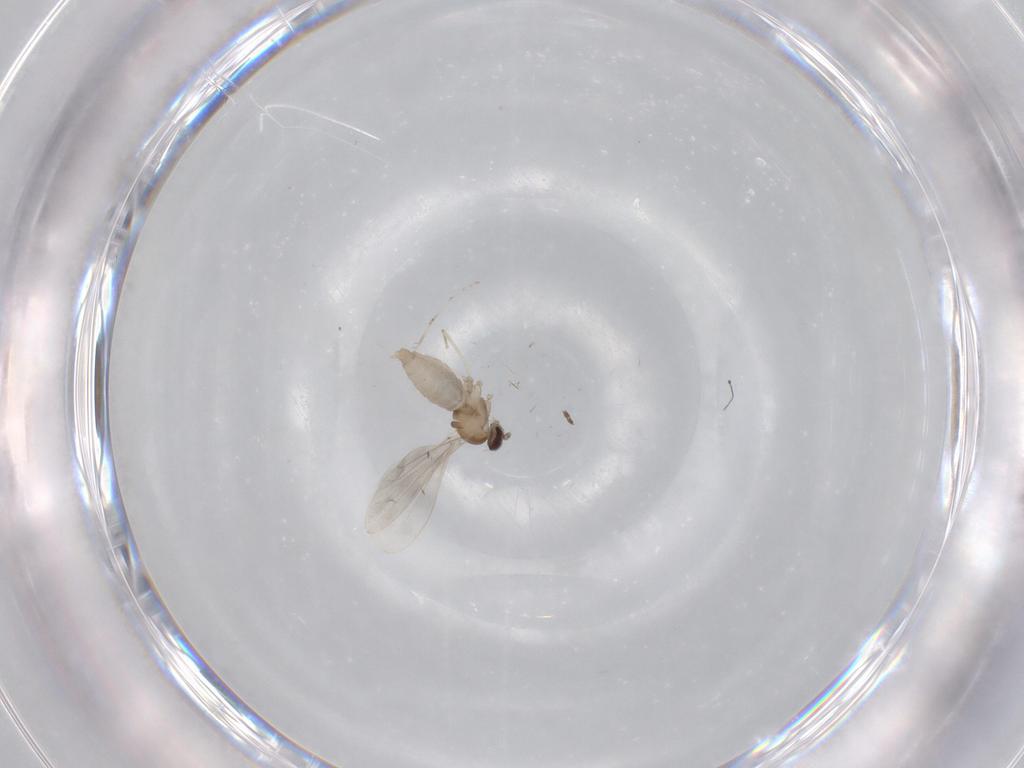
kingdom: Animalia
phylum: Arthropoda
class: Insecta
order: Diptera
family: Cecidomyiidae
